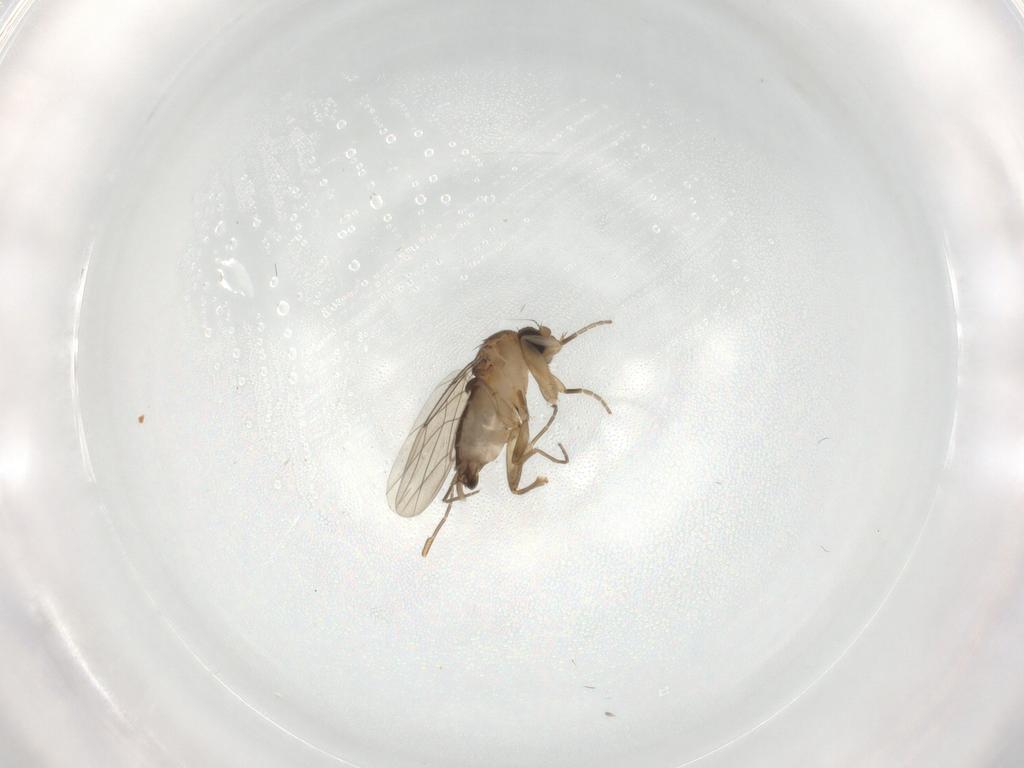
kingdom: Animalia
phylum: Arthropoda
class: Insecta
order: Diptera
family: Phoridae
